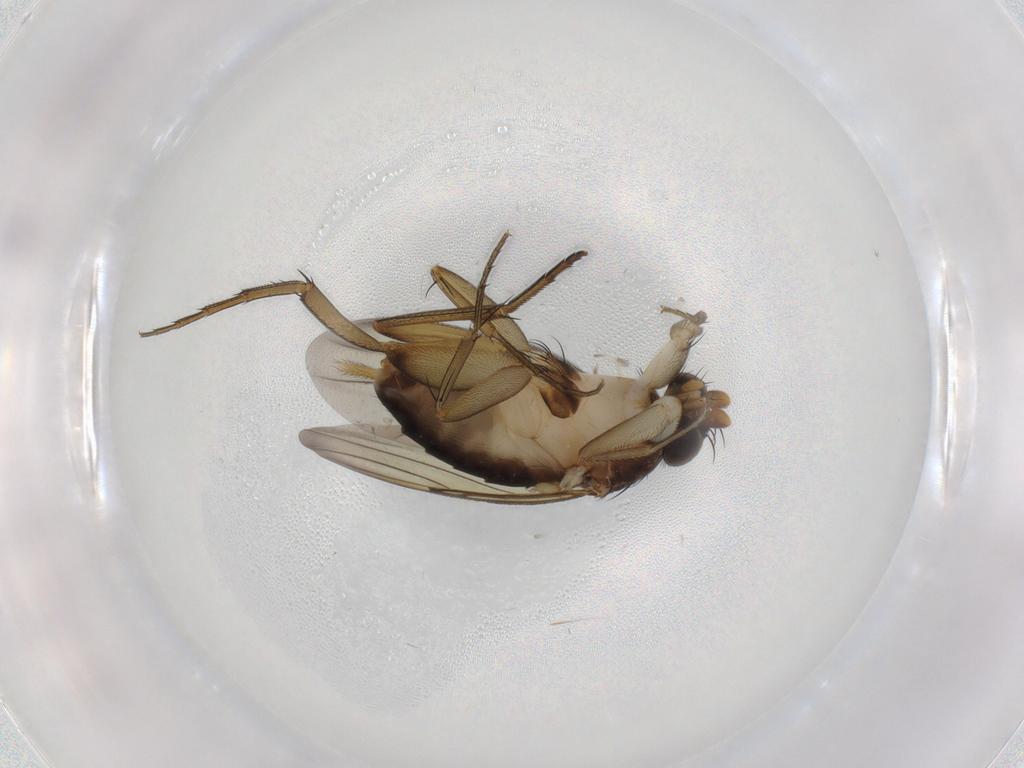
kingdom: Animalia
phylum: Arthropoda
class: Insecta
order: Diptera
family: Phoridae
